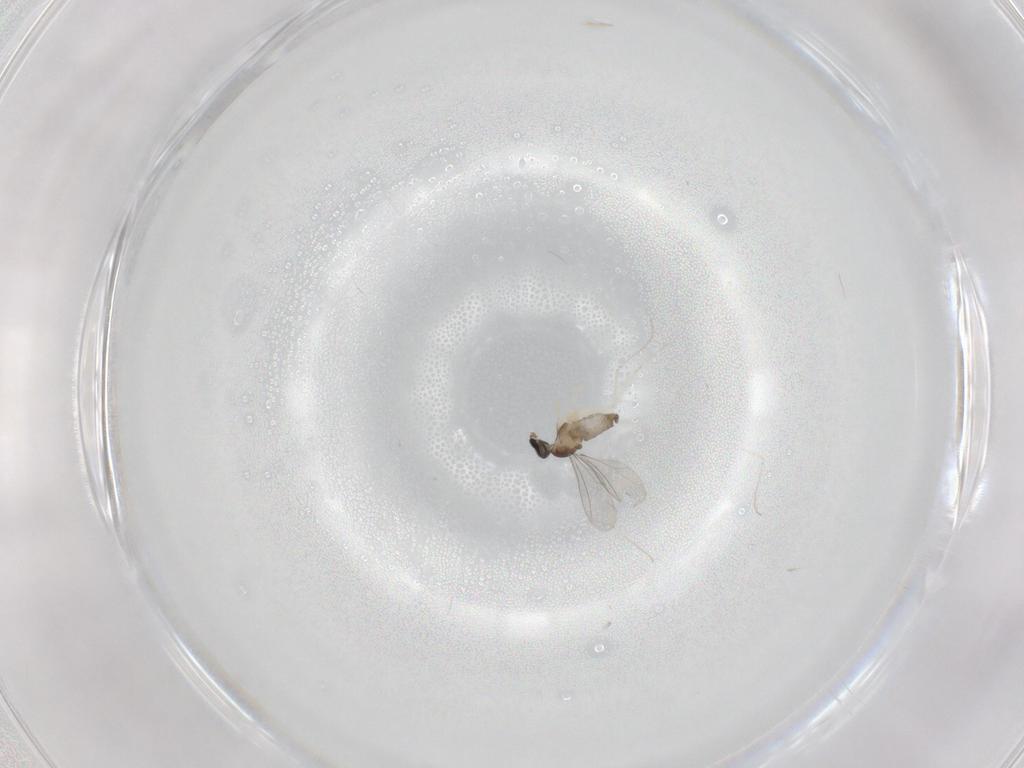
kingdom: Animalia
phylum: Arthropoda
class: Insecta
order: Diptera
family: Cecidomyiidae
